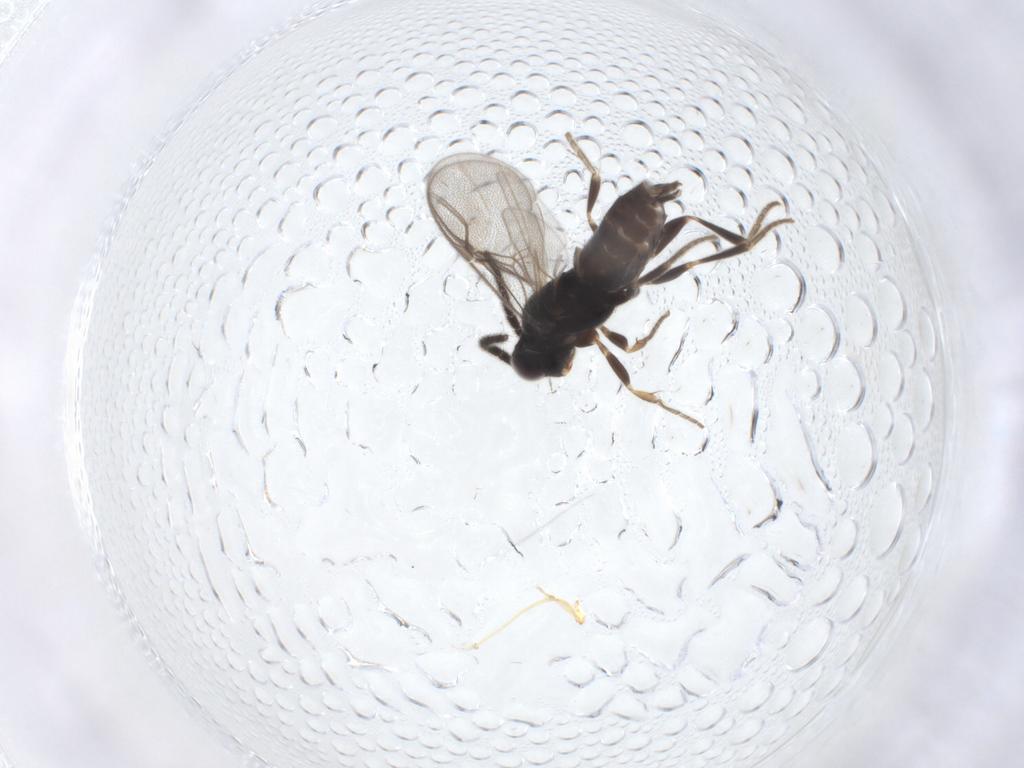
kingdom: Animalia
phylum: Arthropoda
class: Insecta
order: Hymenoptera
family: Dryinidae
